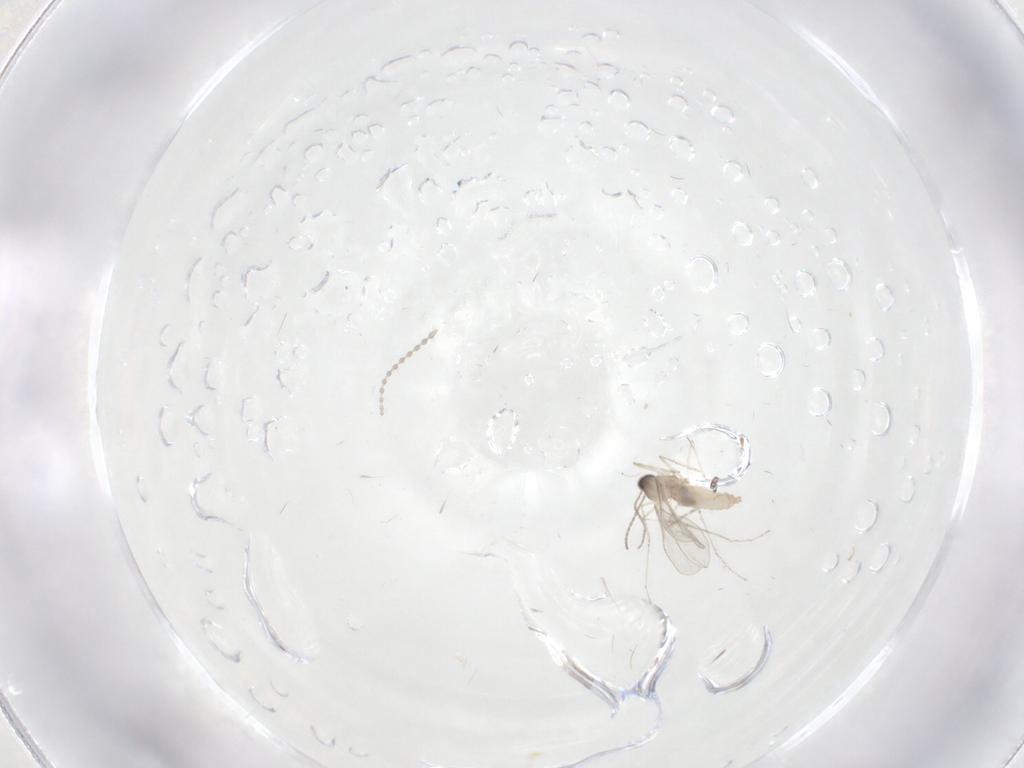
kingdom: Animalia
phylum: Arthropoda
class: Insecta
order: Diptera
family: Cecidomyiidae
